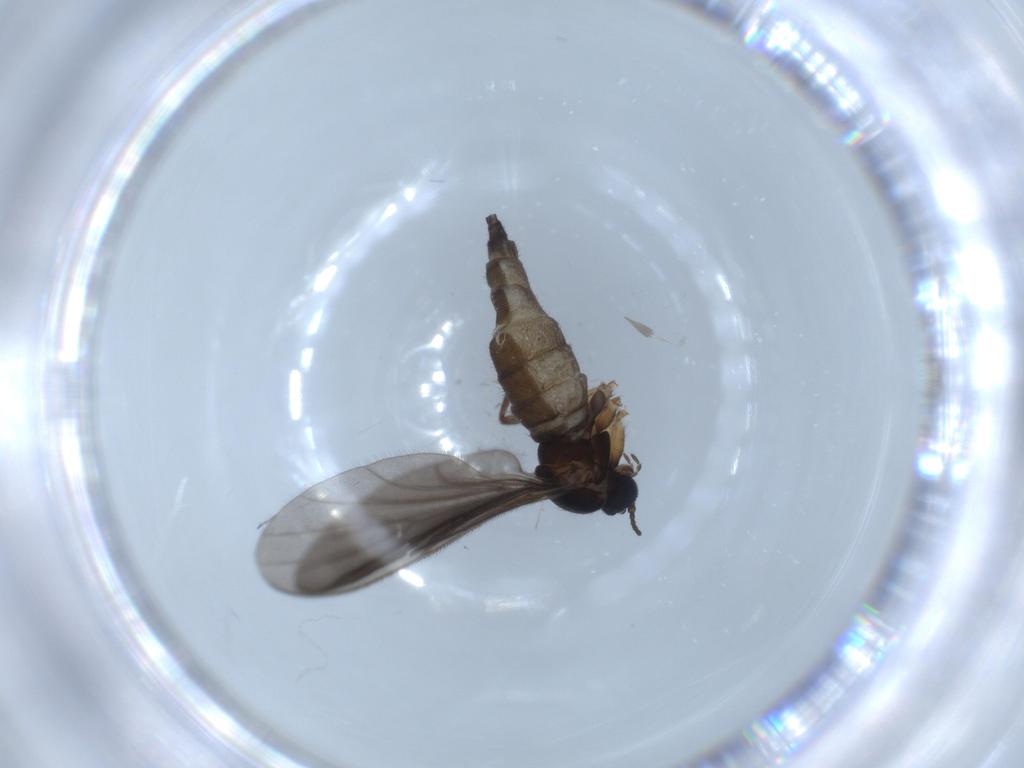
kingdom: Animalia
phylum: Arthropoda
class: Insecta
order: Diptera
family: Sciaridae
